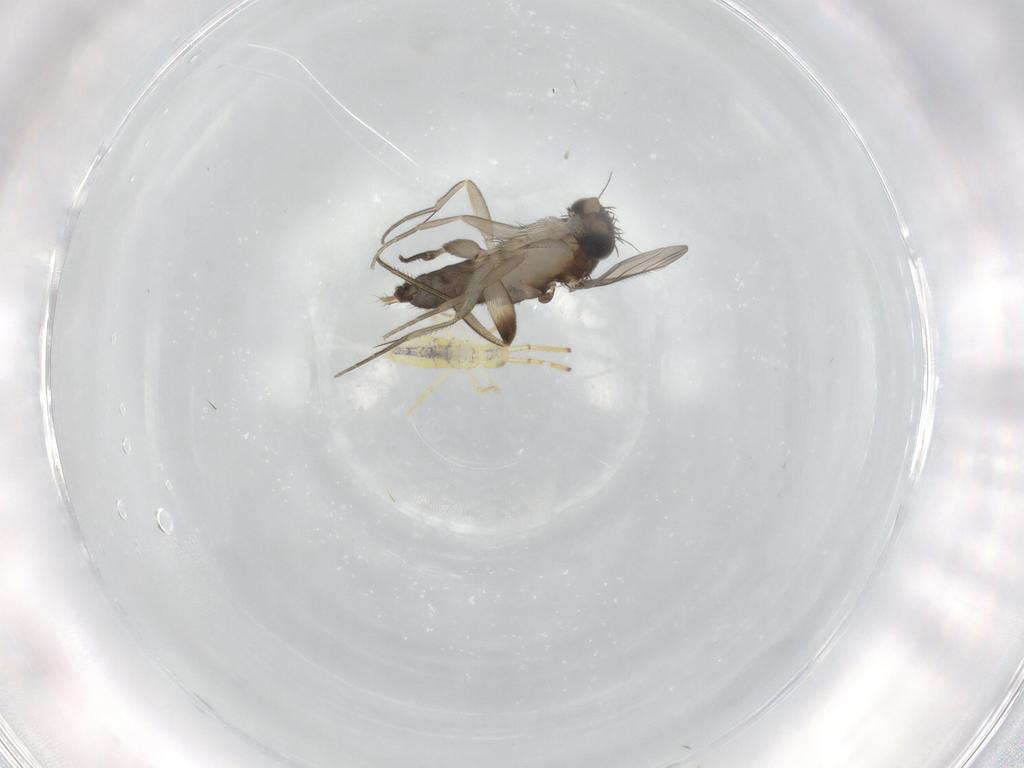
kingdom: Animalia
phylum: Arthropoda
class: Insecta
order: Diptera
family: Phoridae
